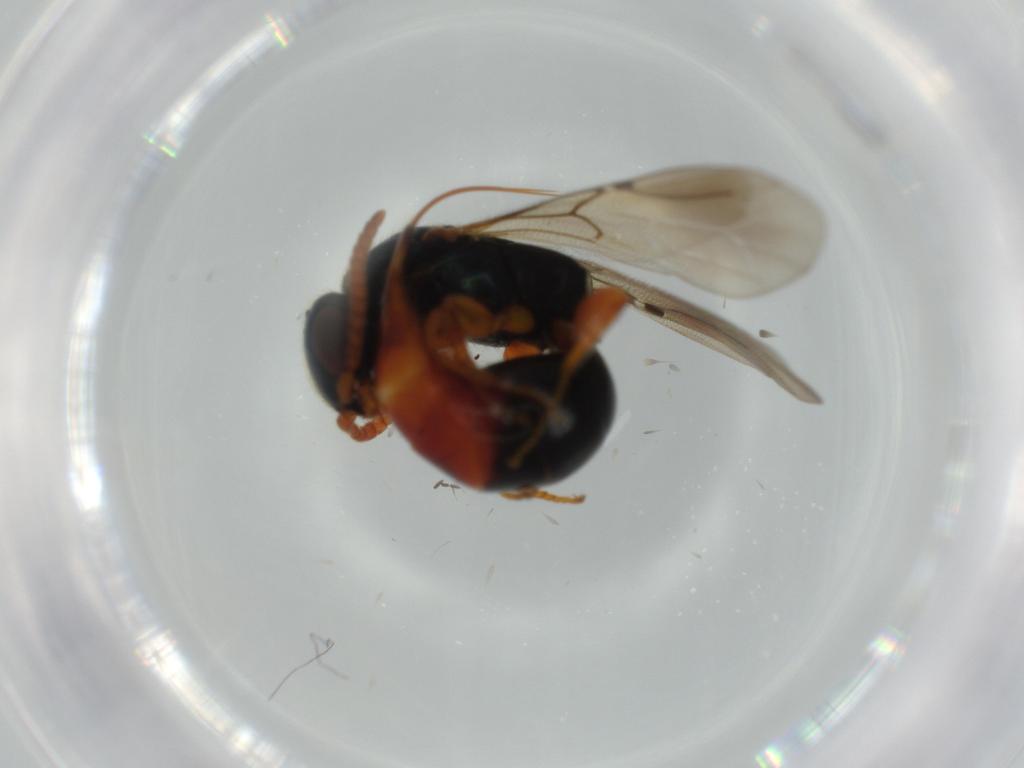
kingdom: Animalia
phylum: Arthropoda
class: Insecta
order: Hymenoptera
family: Bethylidae
